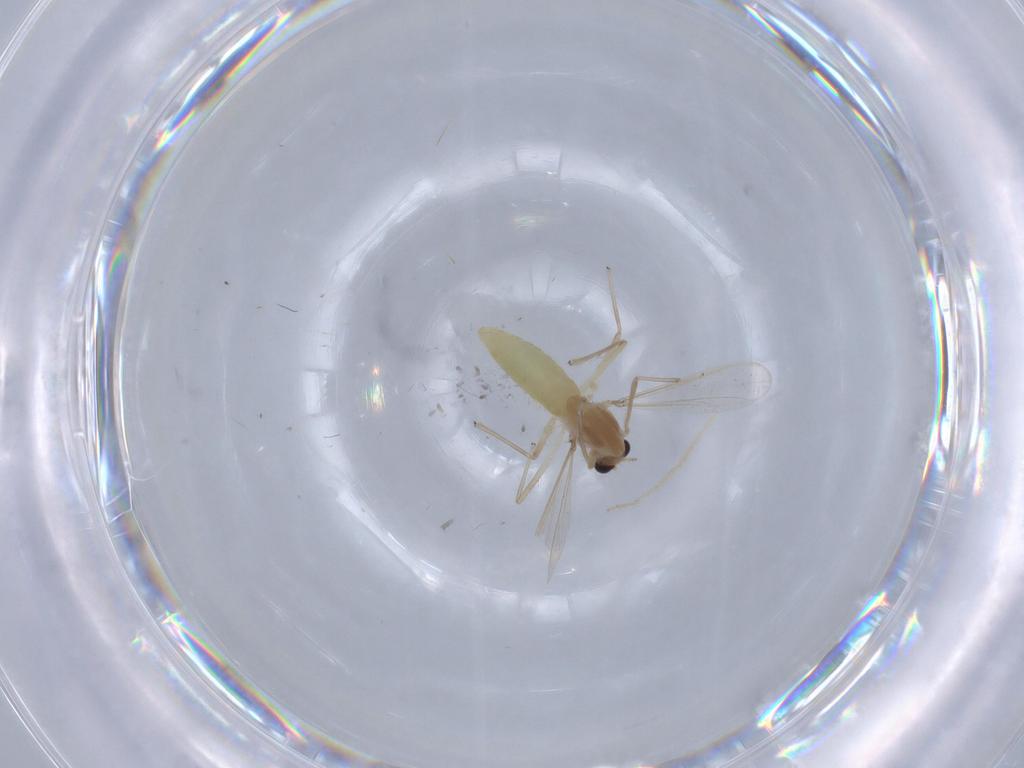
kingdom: Animalia
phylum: Arthropoda
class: Insecta
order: Diptera
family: Chironomidae
